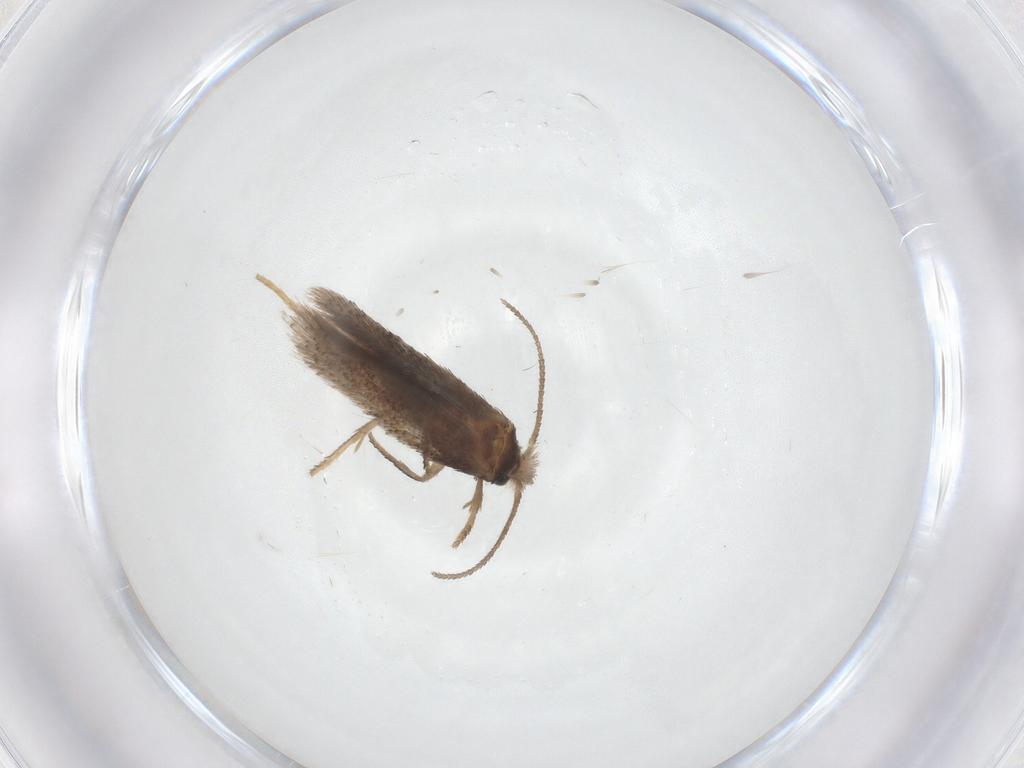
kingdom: Animalia
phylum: Arthropoda
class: Insecta
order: Lepidoptera
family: Nepticulidae
